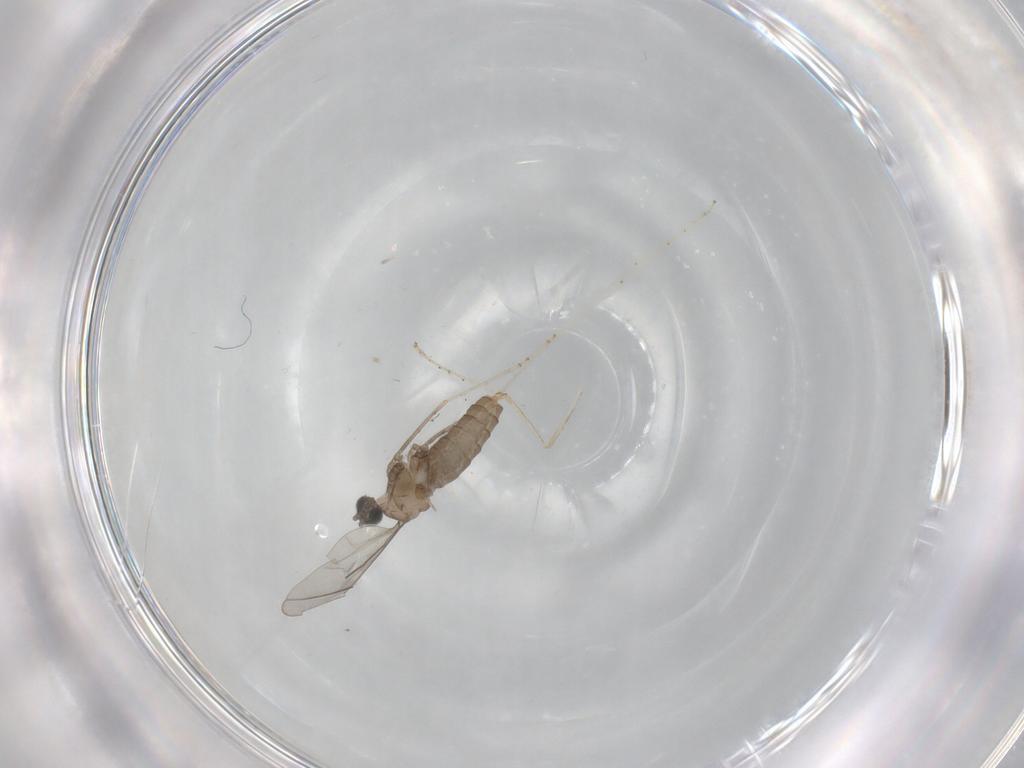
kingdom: Animalia
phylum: Arthropoda
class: Insecta
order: Diptera
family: Cecidomyiidae
